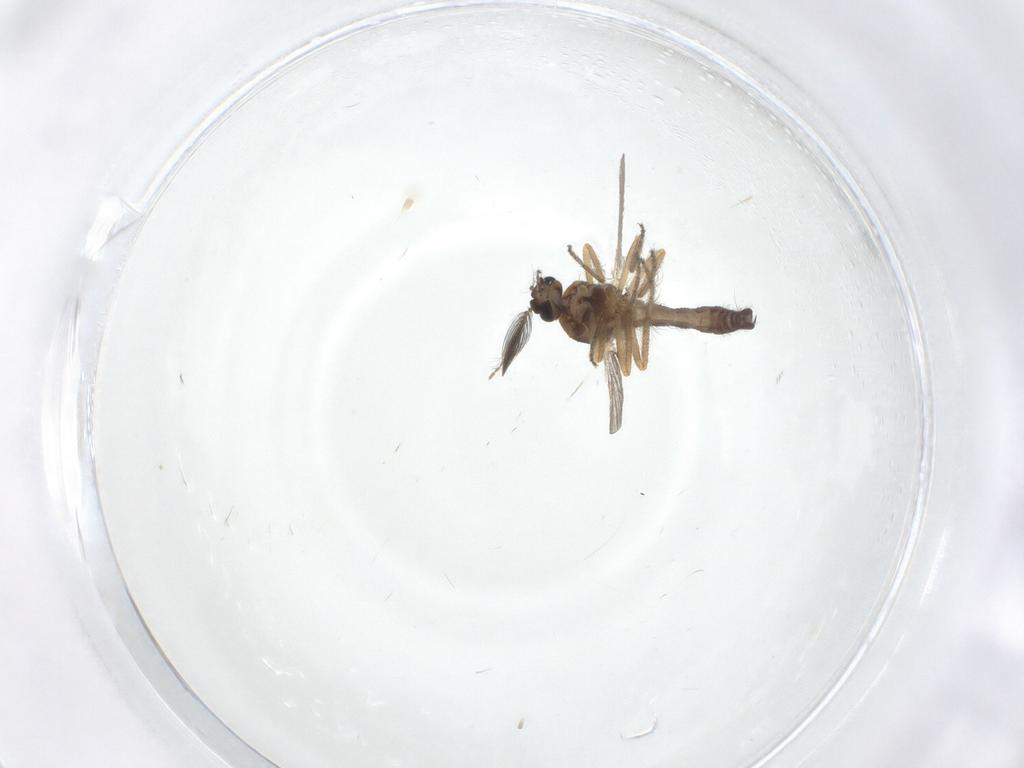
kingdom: Animalia
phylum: Arthropoda
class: Insecta
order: Diptera
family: Ceratopogonidae
